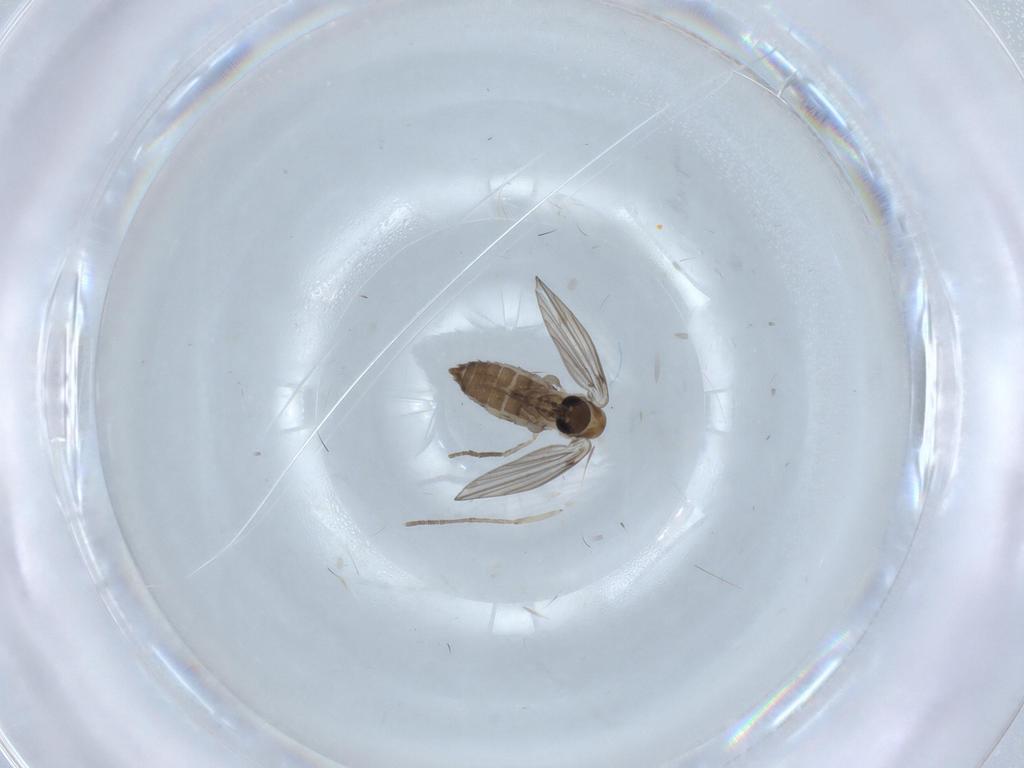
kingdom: Animalia
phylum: Arthropoda
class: Insecta
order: Diptera
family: Psychodidae
